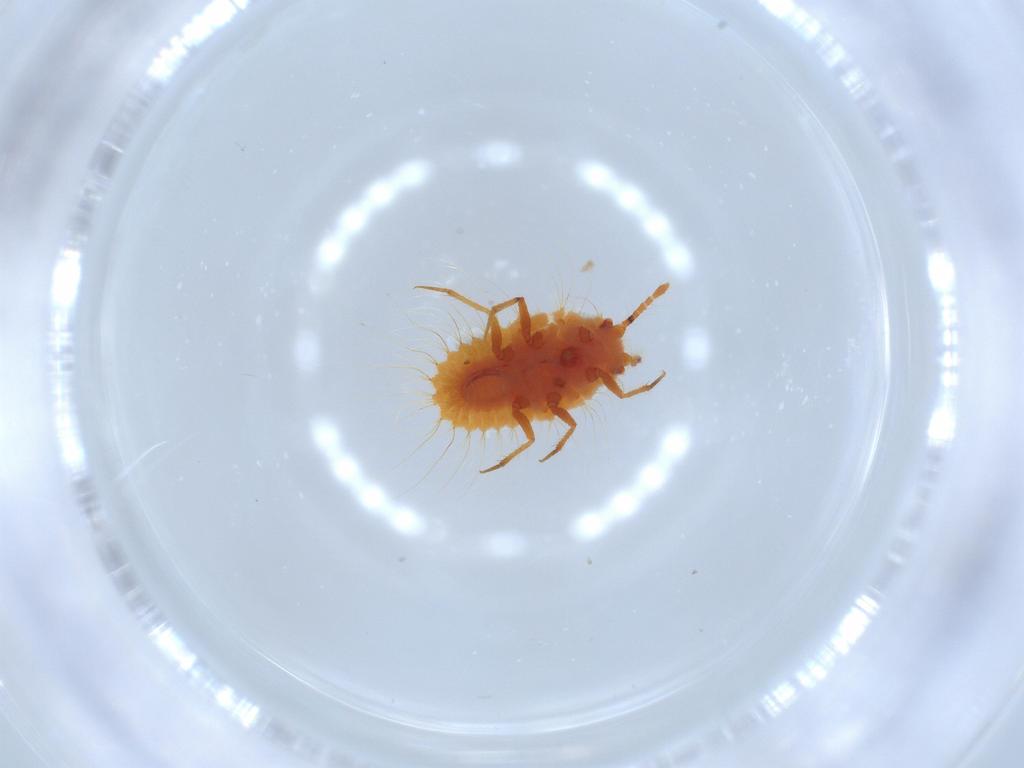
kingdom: Animalia
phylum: Arthropoda
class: Insecta
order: Hemiptera
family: Coccoidea_incertae_sedis
